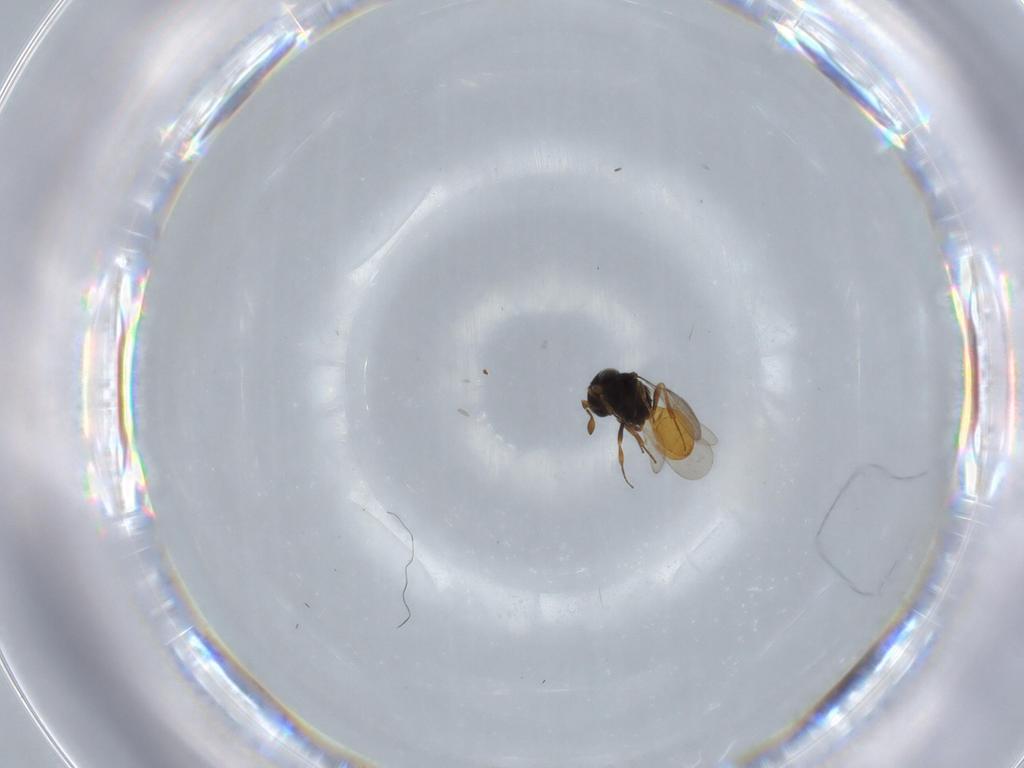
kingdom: Animalia
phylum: Arthropoda
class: Insecta
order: Hymenoptera
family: Scelionidae
